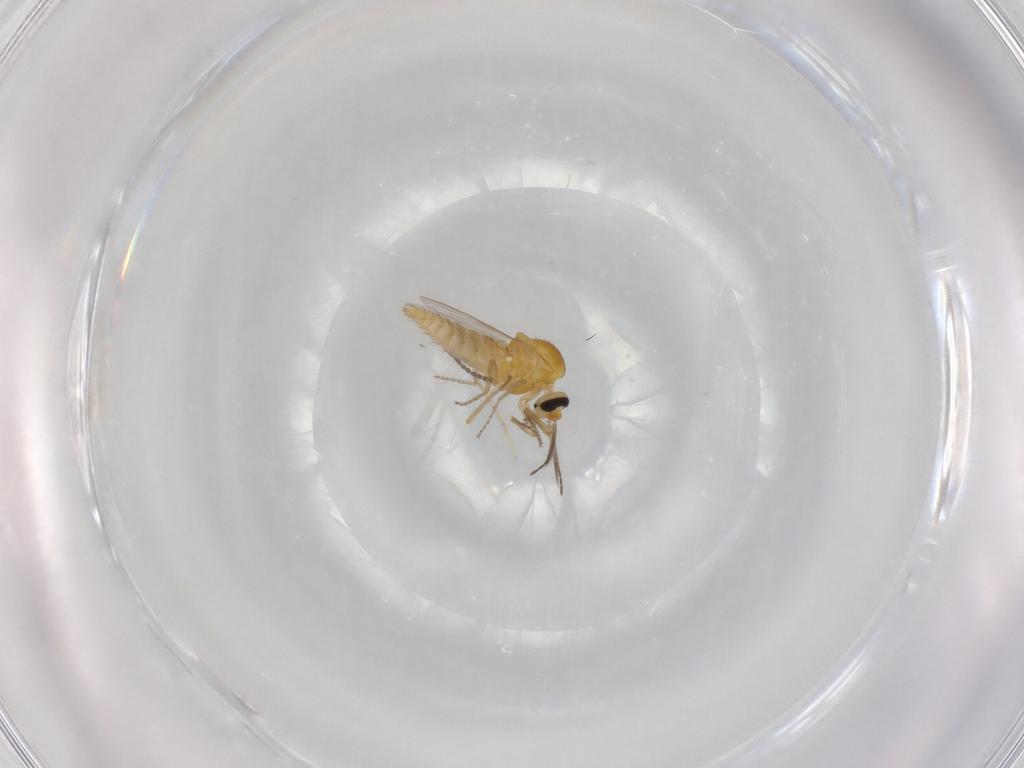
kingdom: Animalia
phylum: Arthropoda
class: Insecta
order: Diptera
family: Ceratopogonidae
